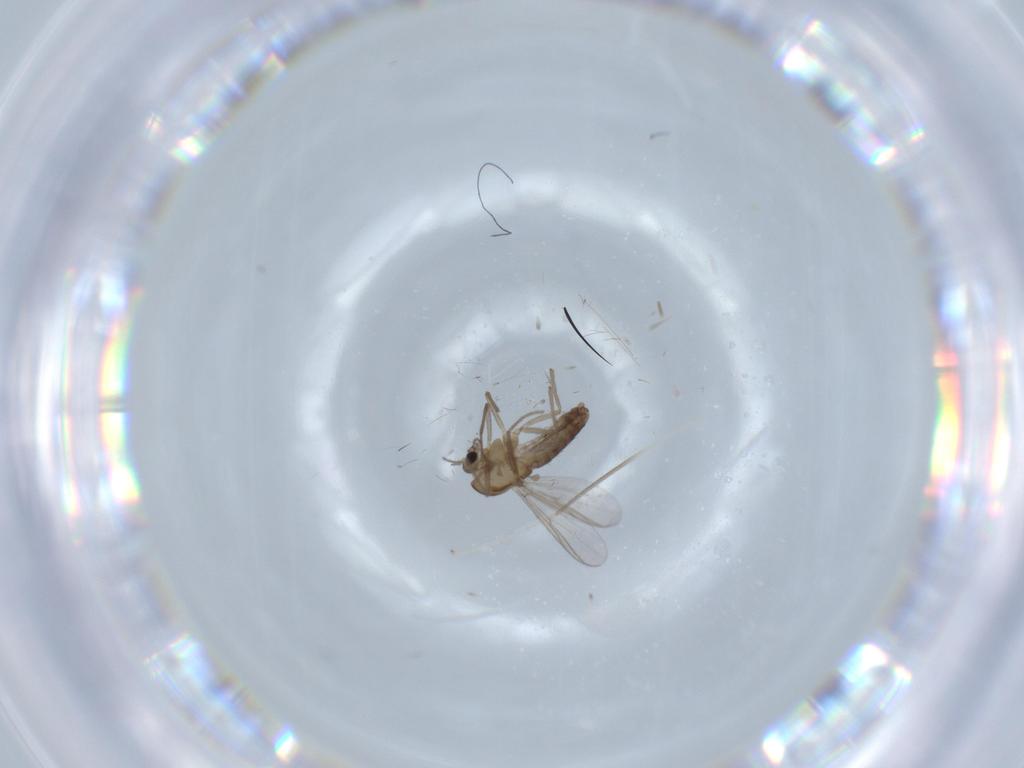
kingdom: Animalia
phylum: Arthropoda
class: Insecta
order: Diptera
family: Chironomidae
